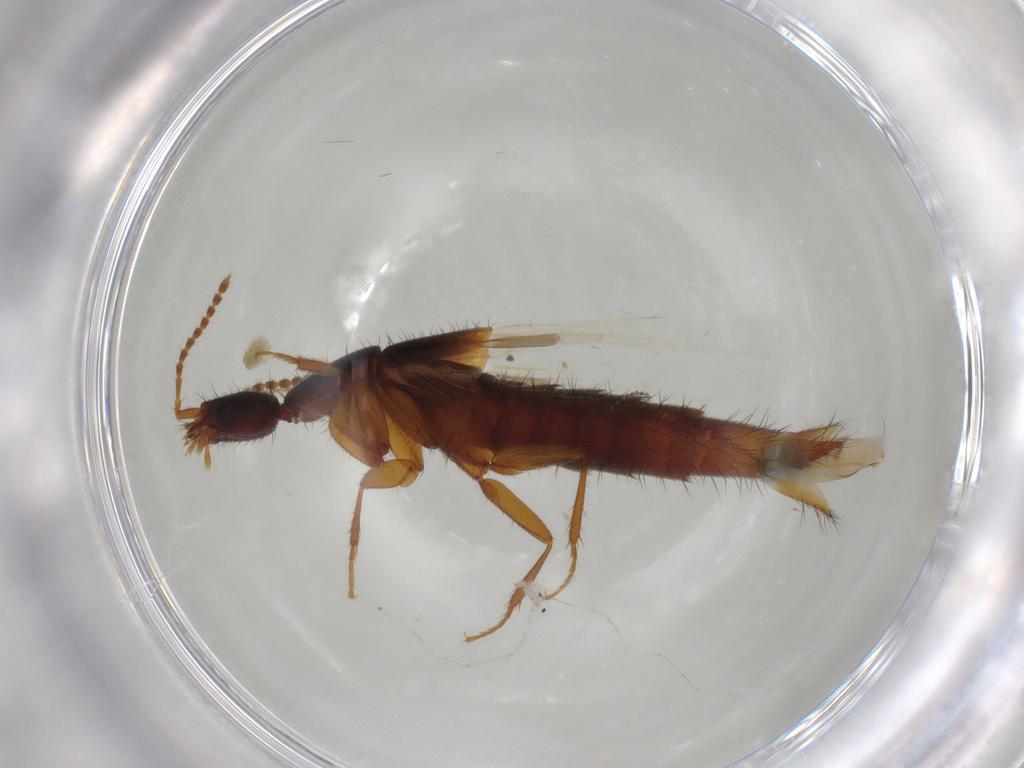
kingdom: Animalia
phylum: Arthropoda
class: Insecta
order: Coleoptera
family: Staphylinidae
